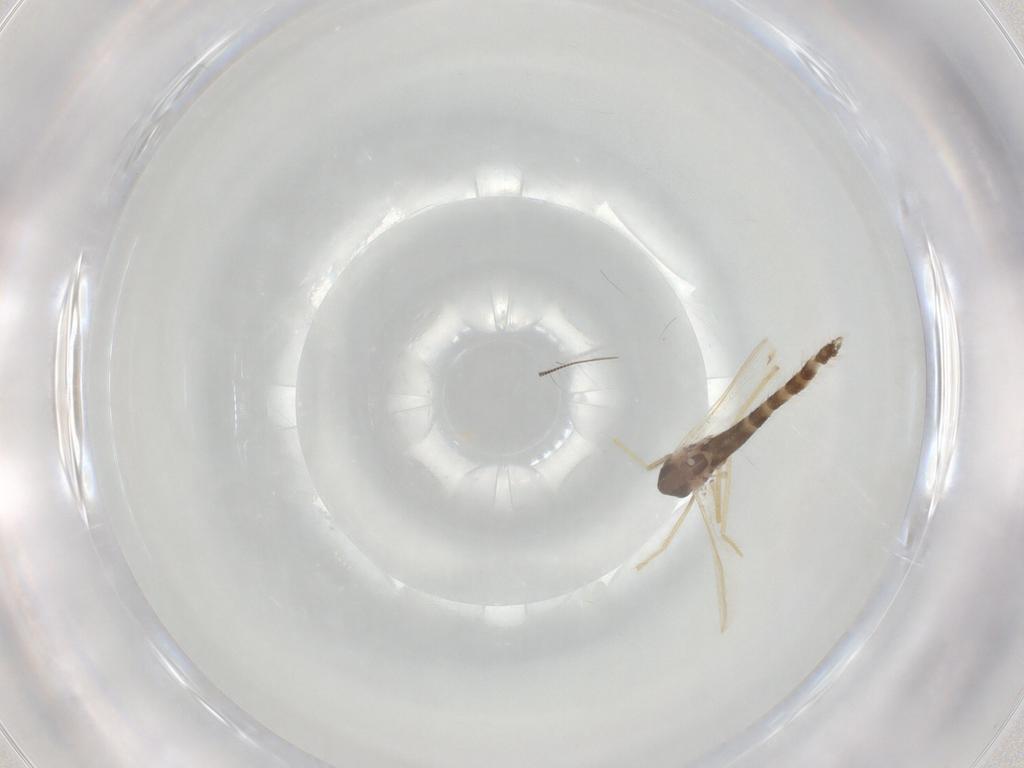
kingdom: Animalia
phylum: Arthropoda
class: Insecta
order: Diptera
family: Chironomidae
